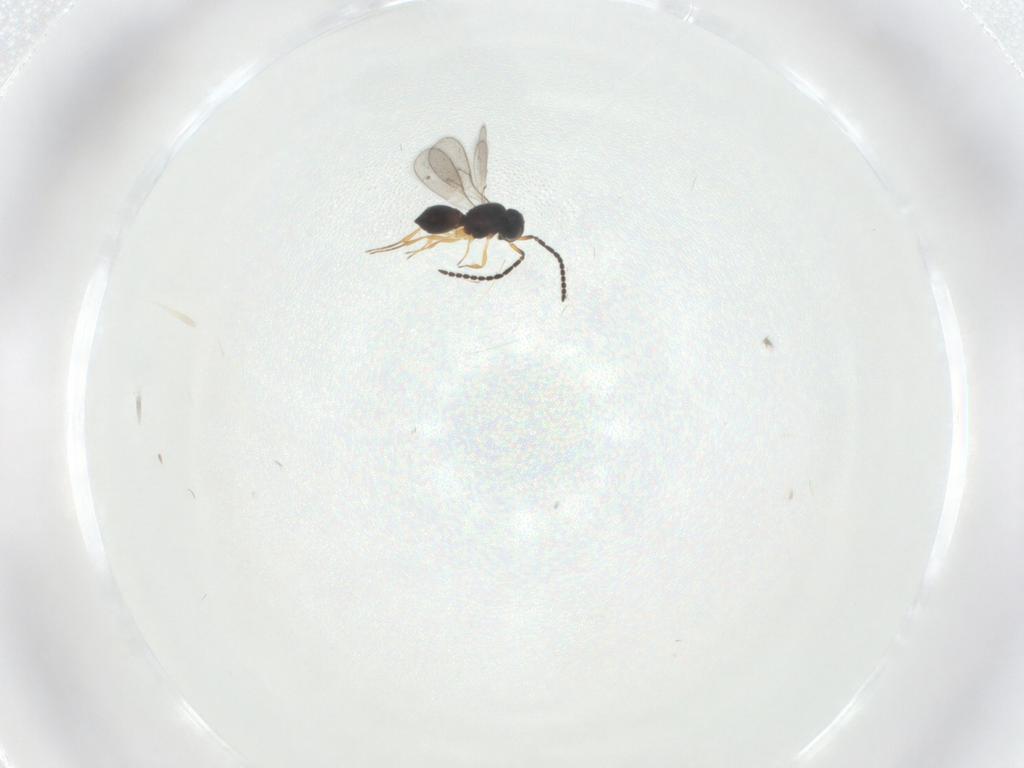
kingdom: Animalia
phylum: Arthropoda
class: Insecta
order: Hymenoptera
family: Scelionidae
